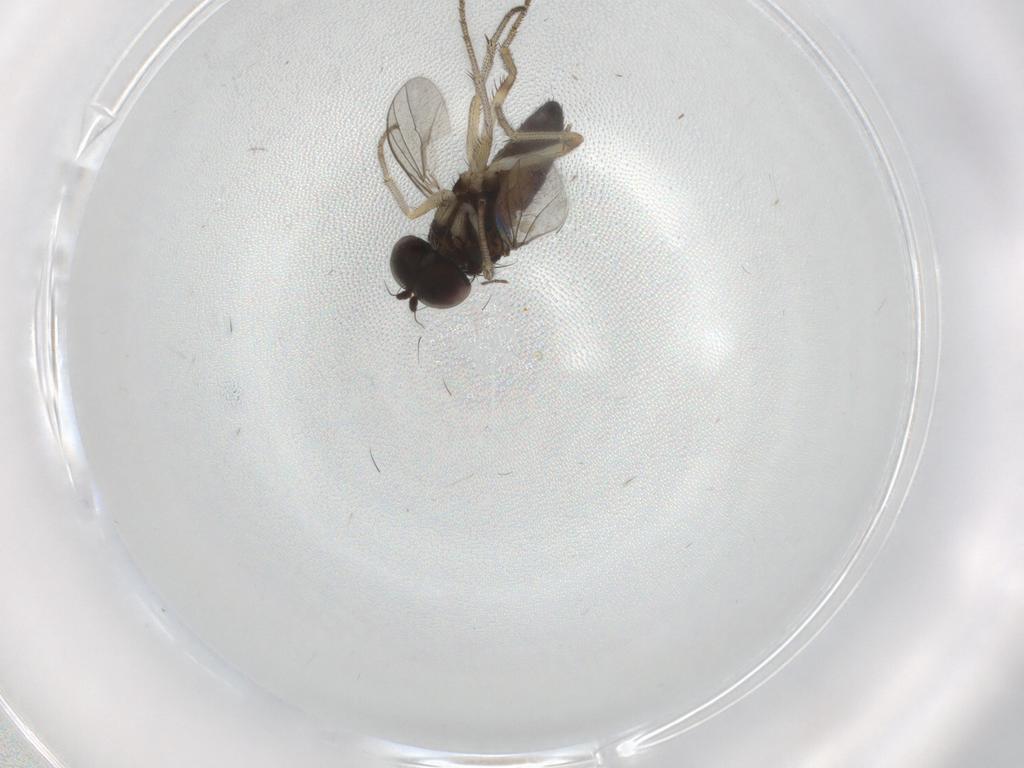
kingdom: Animalia
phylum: Arthropoda
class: Insecta
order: Diptera
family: Dolichopodidae
